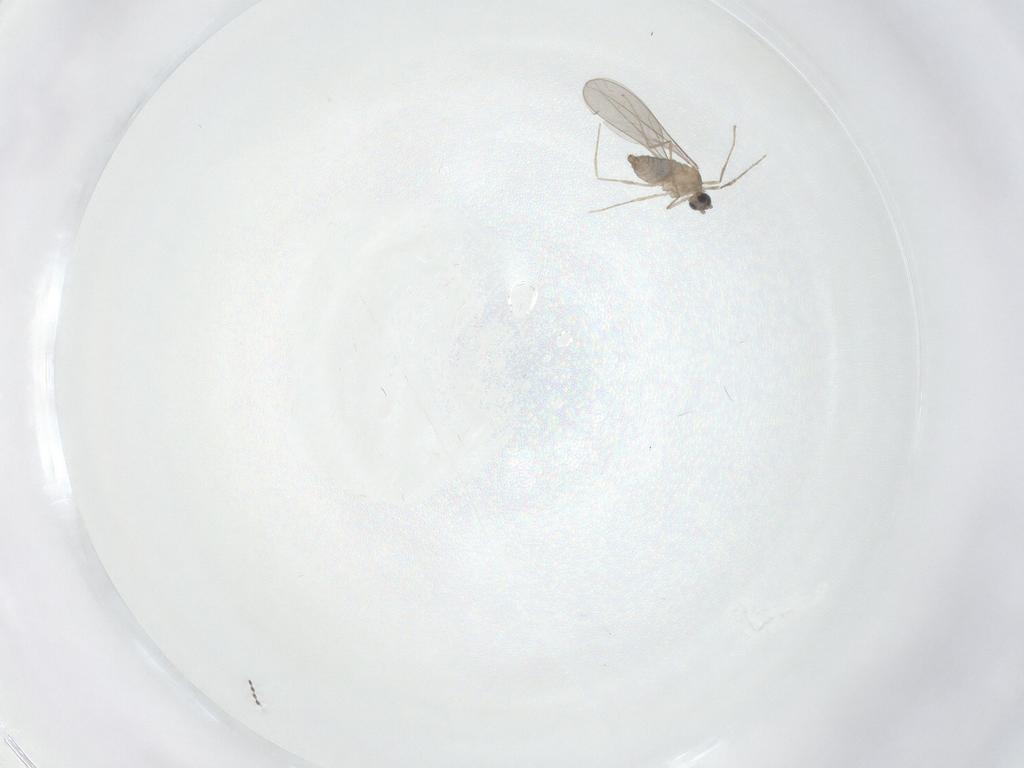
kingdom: Animalia
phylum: Arthropoda
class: Insecta
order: Diptera
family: Cecidomyiidae
